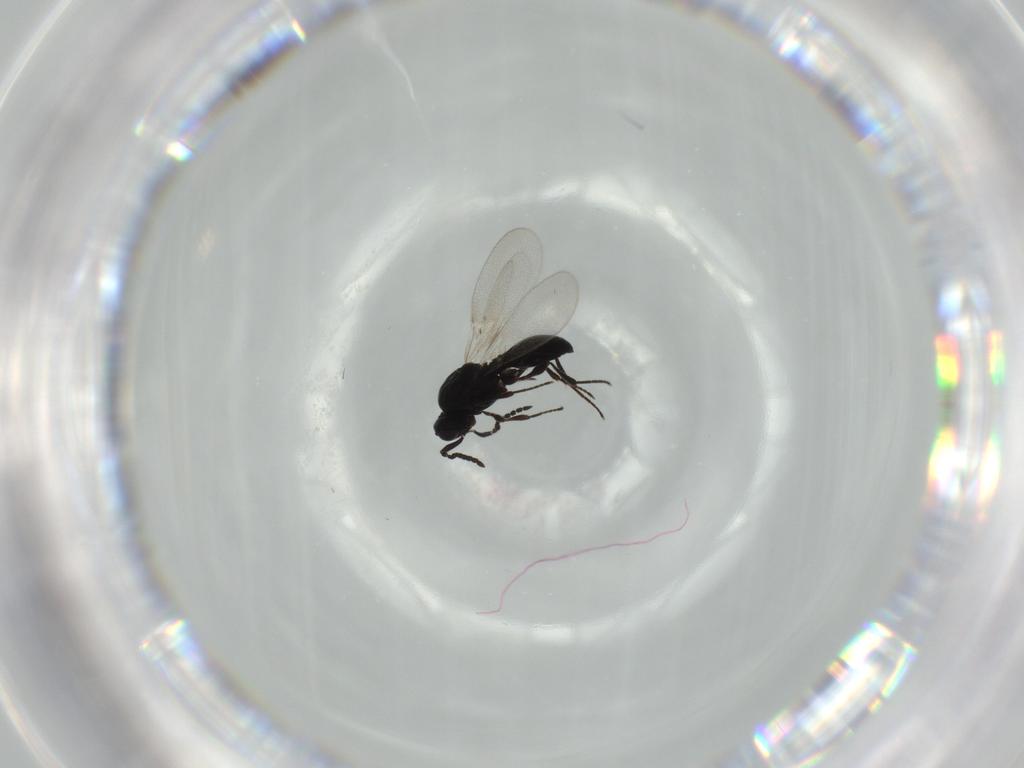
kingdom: Animalia
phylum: Arthropoda
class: Insecta
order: Hymenoptera
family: Platygastridae
